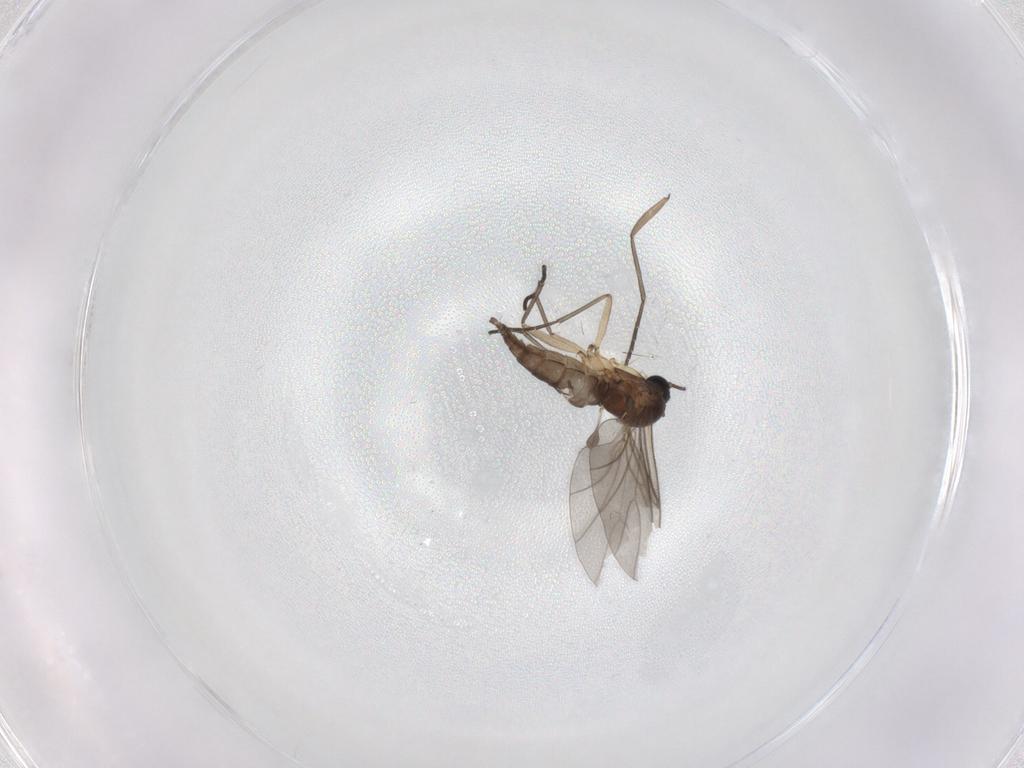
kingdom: Animalia
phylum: Arthropoda
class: Insecta
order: Diptera
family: Sciaridae
